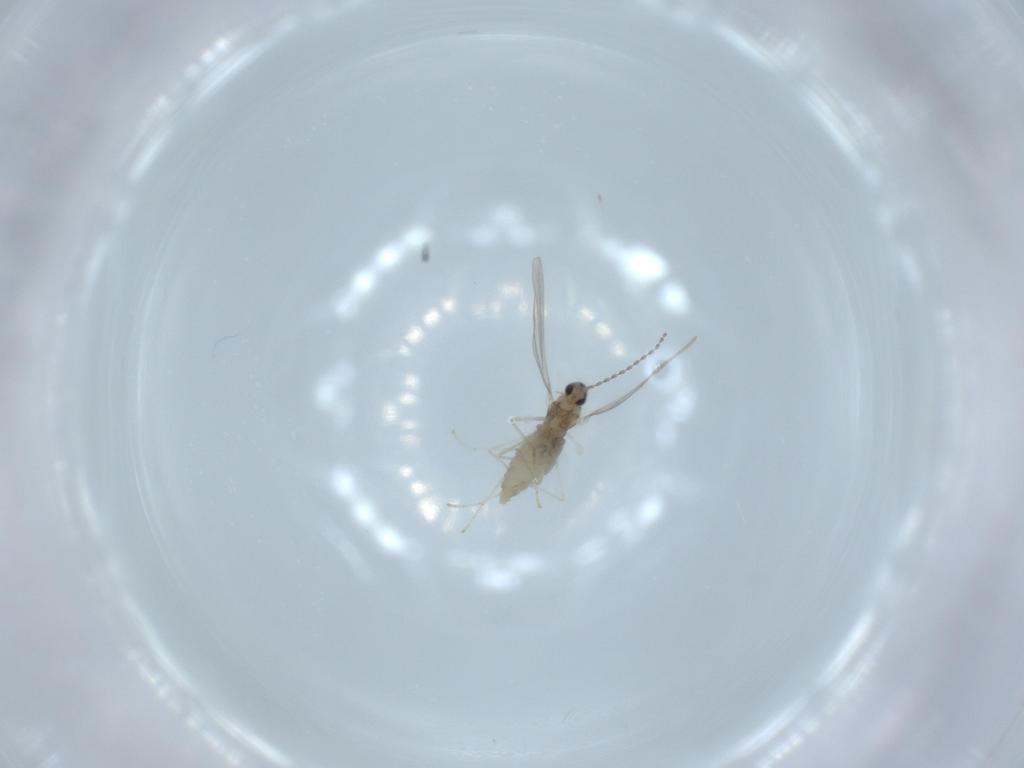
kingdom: Animalia
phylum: Arthropoda
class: Insecta
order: Diptera
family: Cecidomyiidae
